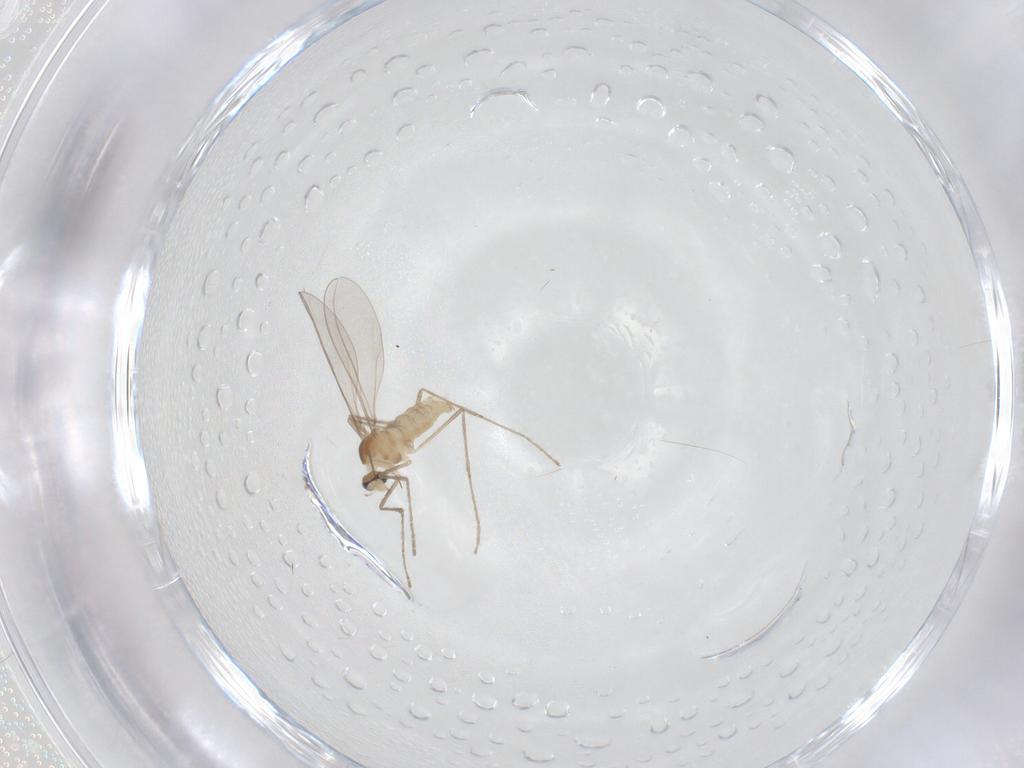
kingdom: Animalia
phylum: Arthropoda
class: Insecta
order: Diptera
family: Cecidomyiidae
